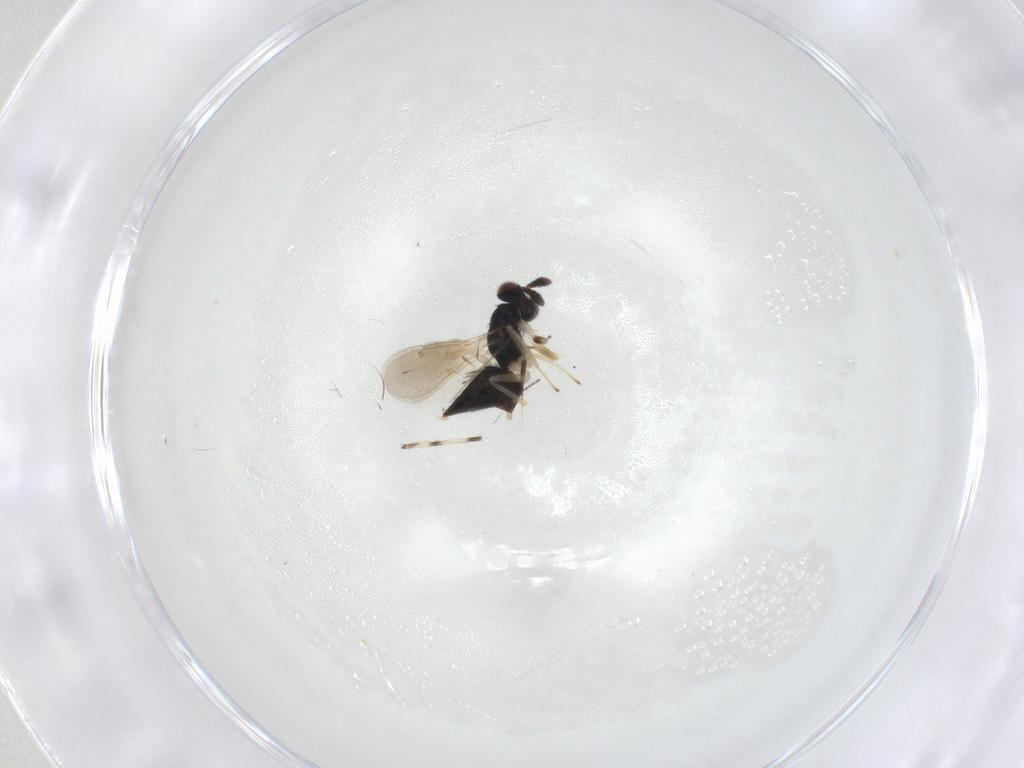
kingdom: Animalia
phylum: Arthropoda
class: Insecta
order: Hymenoptera
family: Eulophidae
